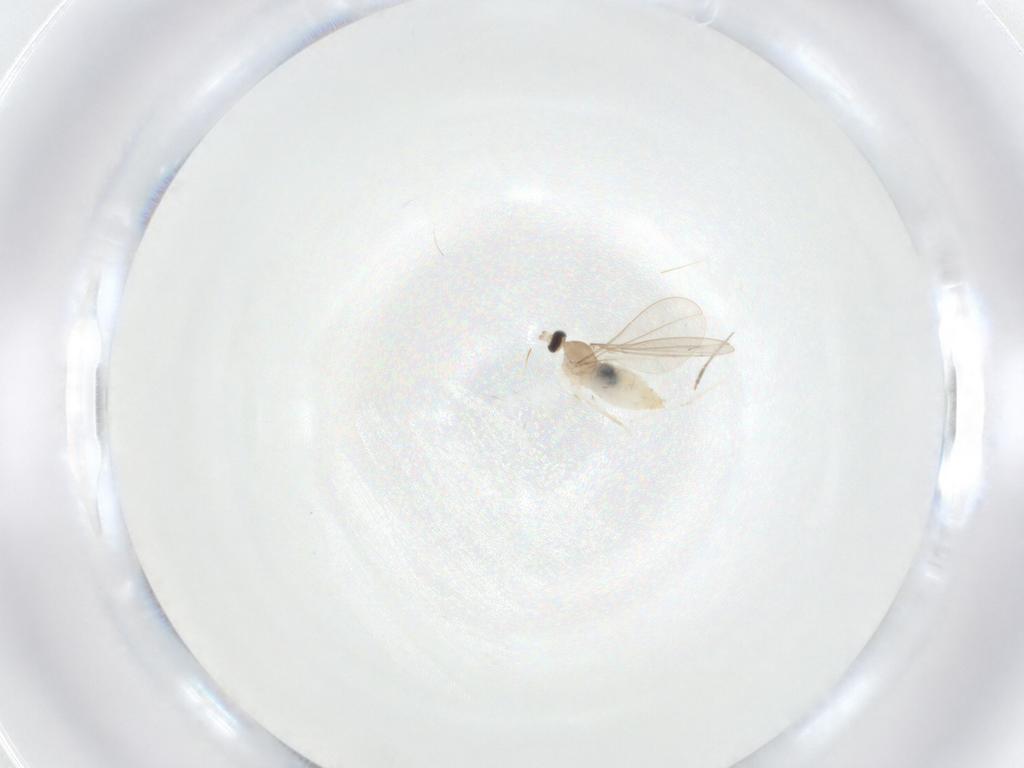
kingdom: Animalia
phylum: Arthropoda
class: Insecta
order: Diptera
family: Cecidomyiidae
